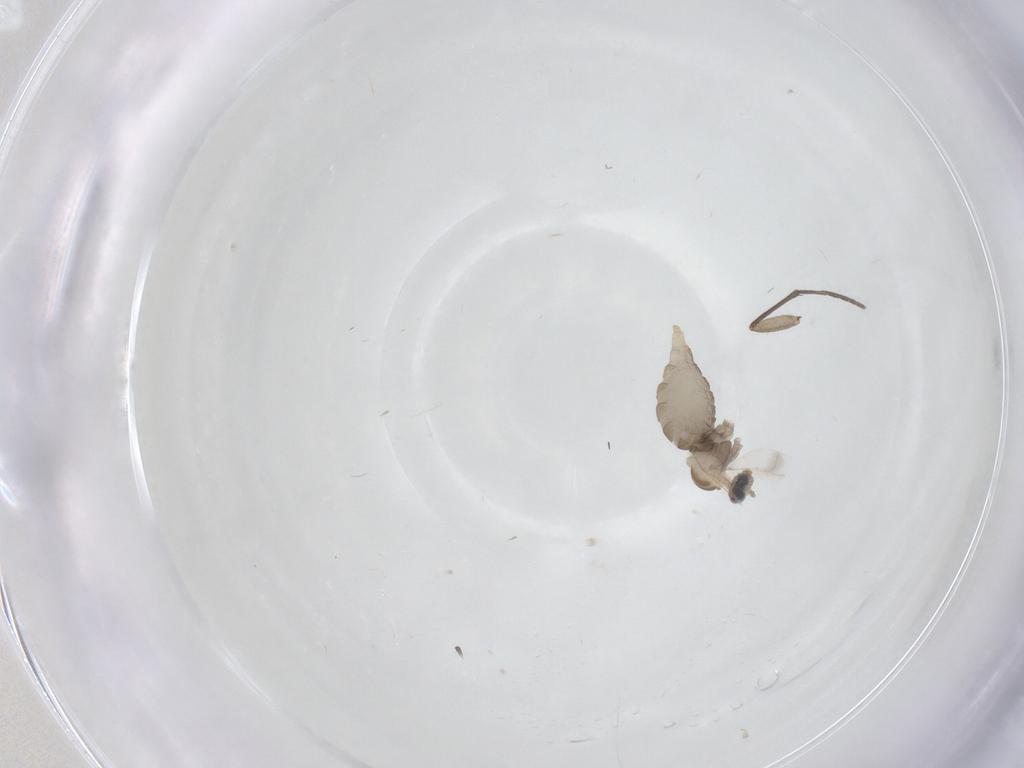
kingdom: Animalia
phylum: Arthropoda
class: Insecta
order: Diptera
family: Sciaridae
